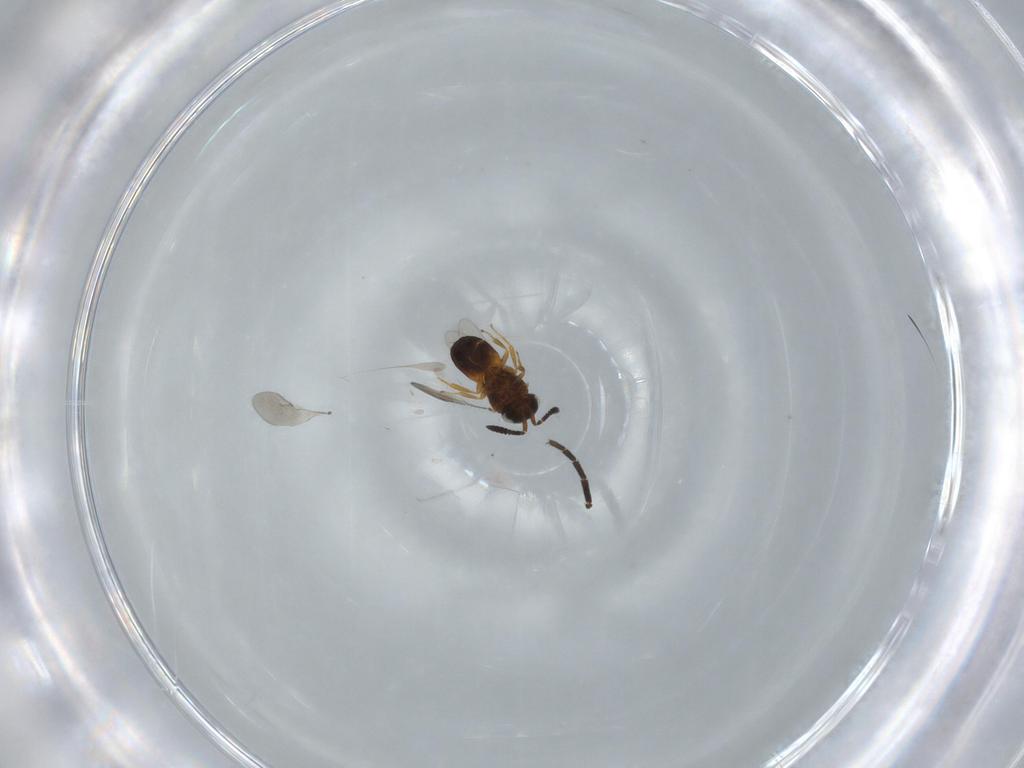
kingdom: Animalia
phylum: Arthropoda
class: Insecta
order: Hymenoptera
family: Scelionidae
